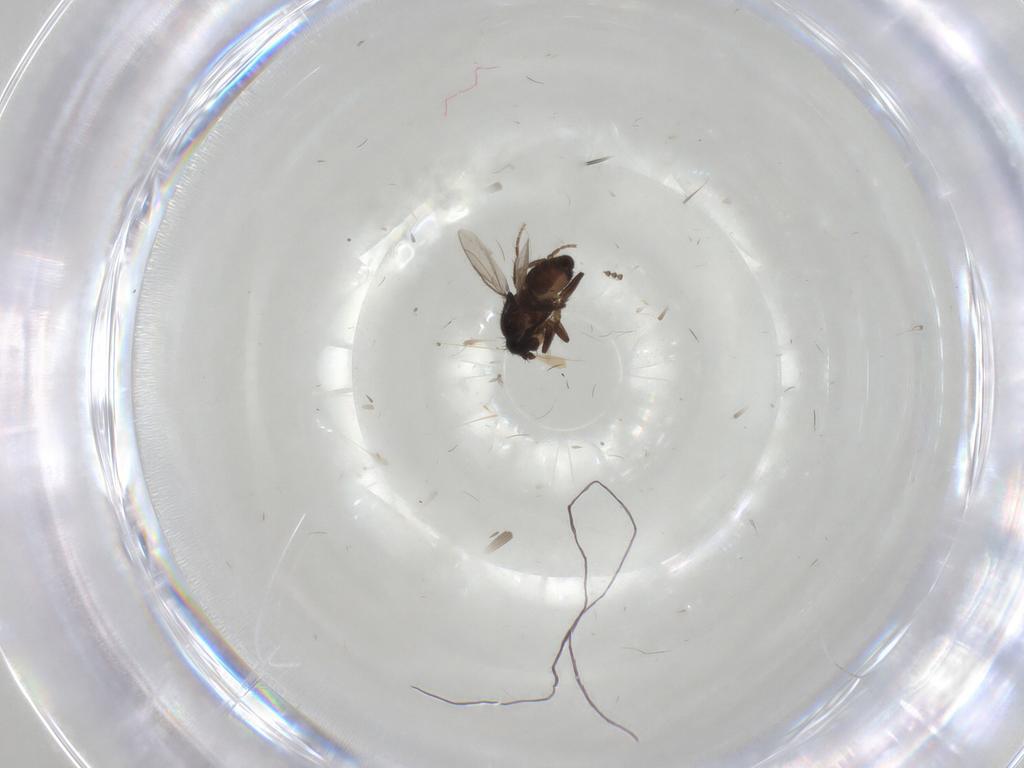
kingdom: Animalia
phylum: Arthropoda
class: Insecta
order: Diptera
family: Cecidomyiidae
